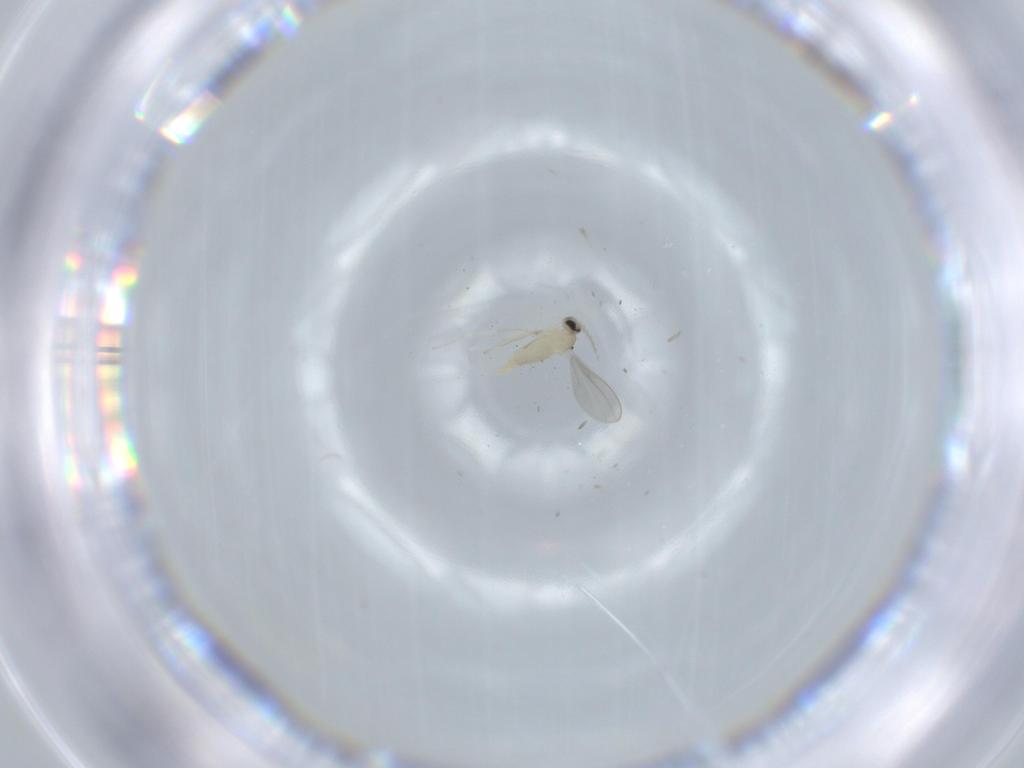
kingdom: Animalia
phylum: Arthropoda
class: Insecta
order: Diptera
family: Cecidomyiidae
